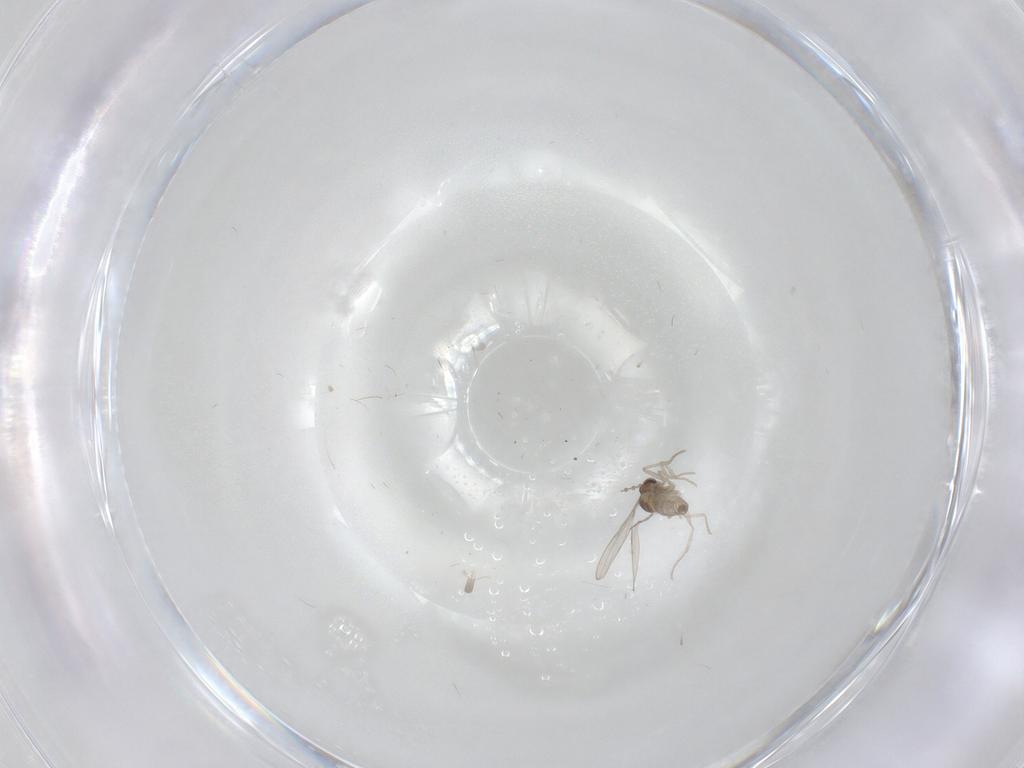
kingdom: Animalia
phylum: Arthropoda
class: Insecta
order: Diptera
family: Cecidomyiidae
